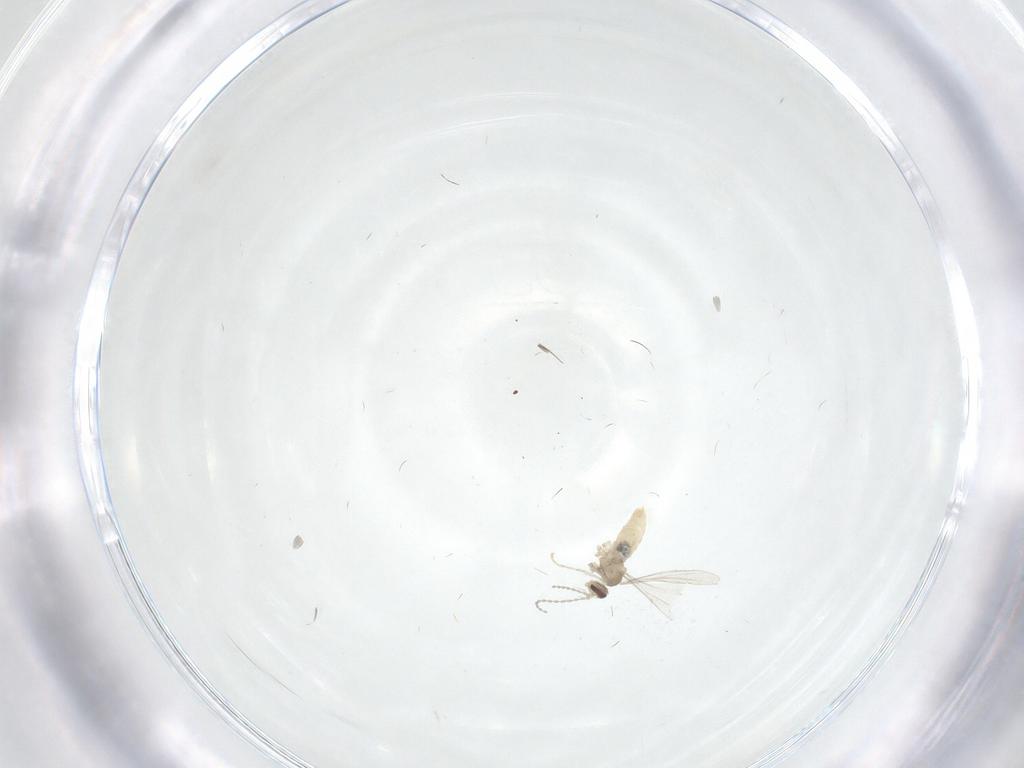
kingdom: Animalia
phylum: Arthropoda
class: Insecta
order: Diptera
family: Cecidomyiidae
